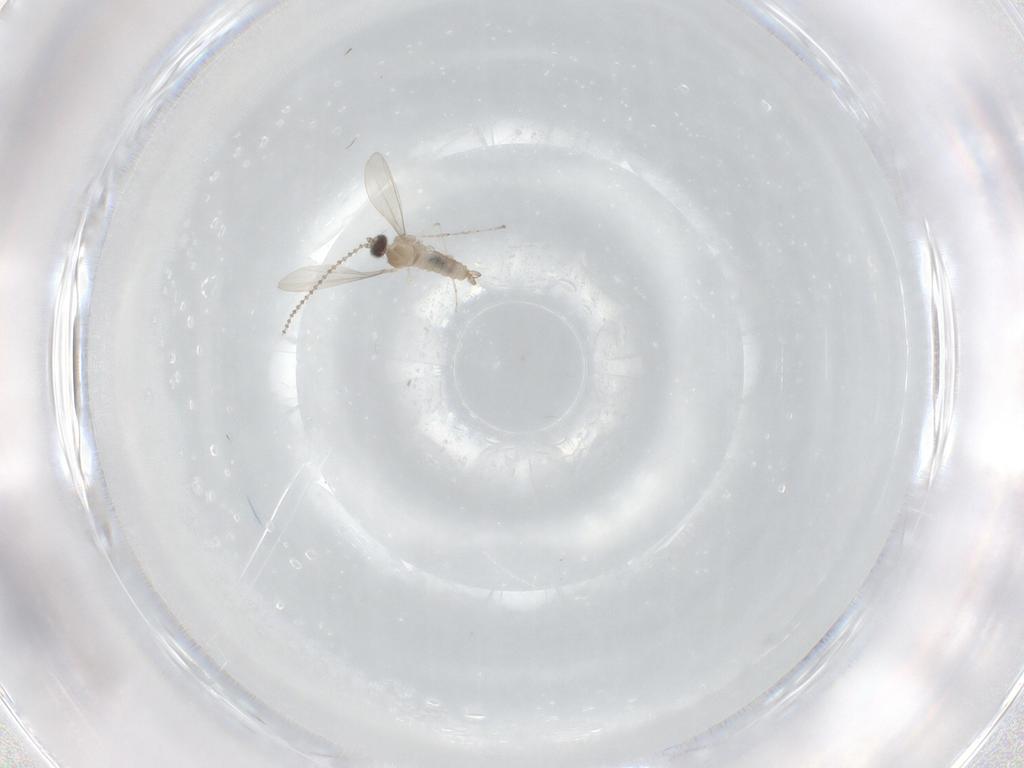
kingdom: Animalia
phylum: Arthropoda
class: Insecta
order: Diptera
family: Cecidomyiidae
